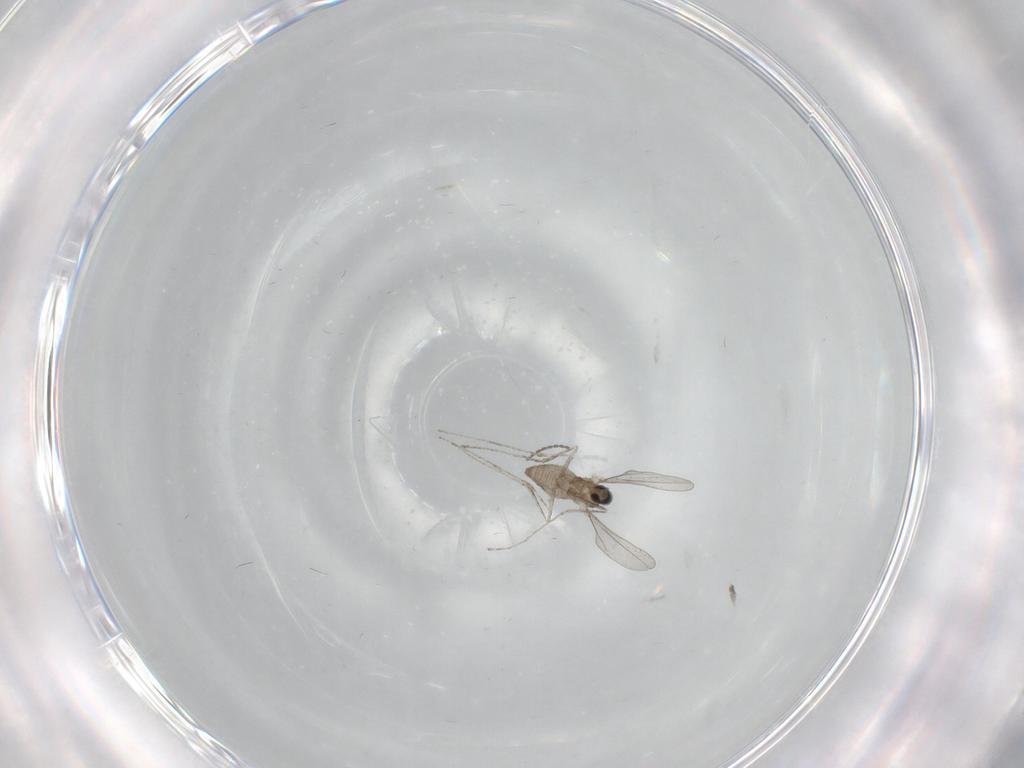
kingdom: Animalia
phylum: Arthropoda
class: Insecta
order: Diptera
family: Cecidomyiidae
